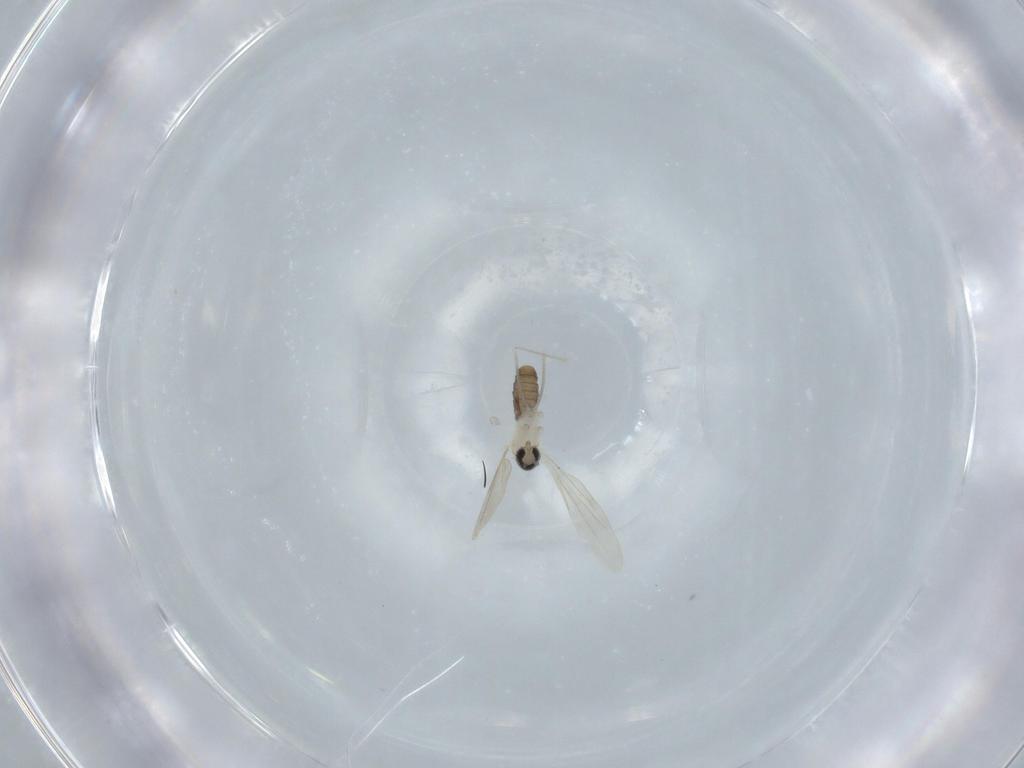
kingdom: Animalia
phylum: Arthropoda
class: Insecta
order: Diptera
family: Cecidomyiidae
